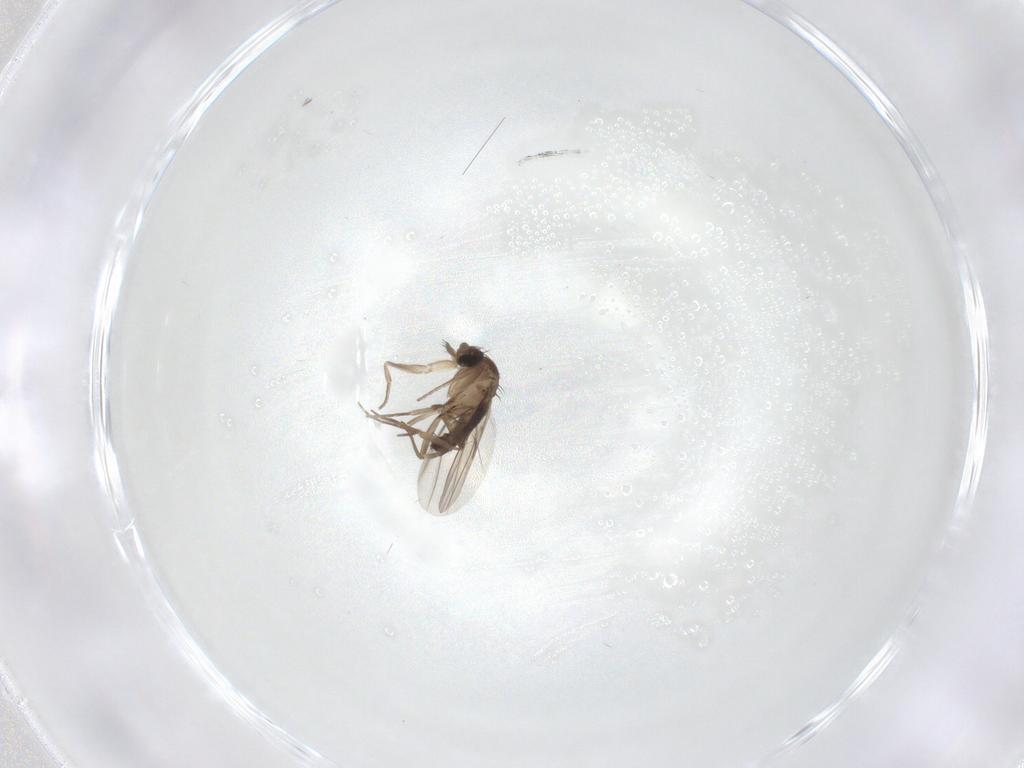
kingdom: Animalia
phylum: Arthropoda
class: Insecta
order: Diptera
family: Phoridae
